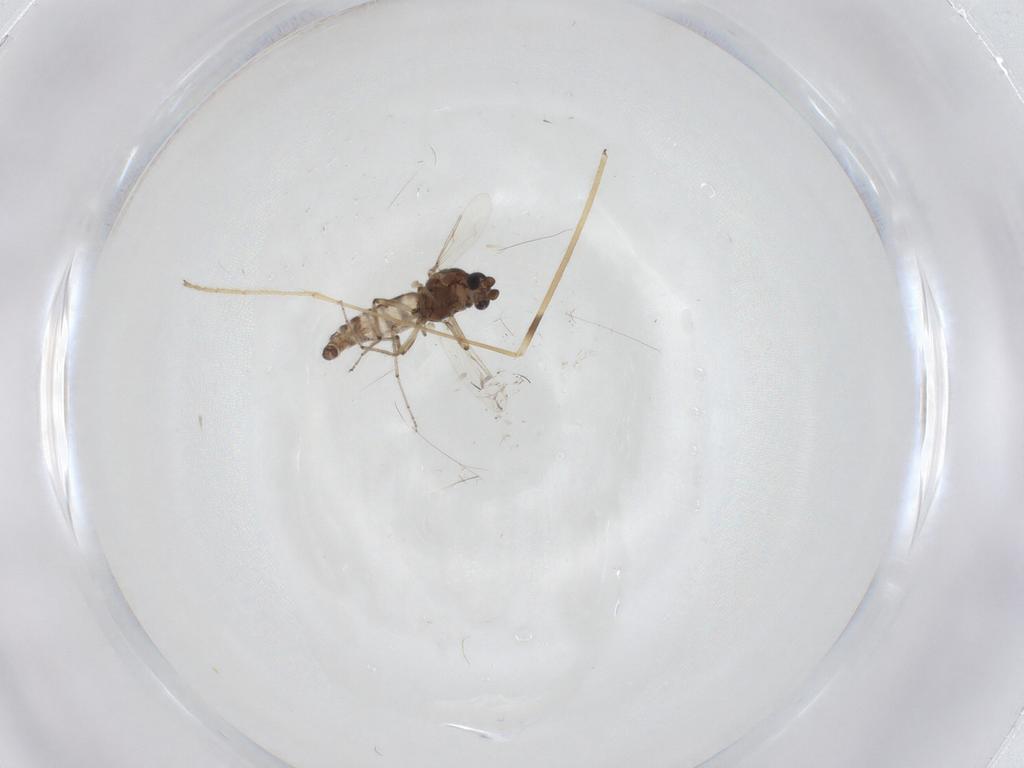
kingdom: Animalia
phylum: Arthropoda
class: Insecta
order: Diptera
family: Ceratopogonidae
